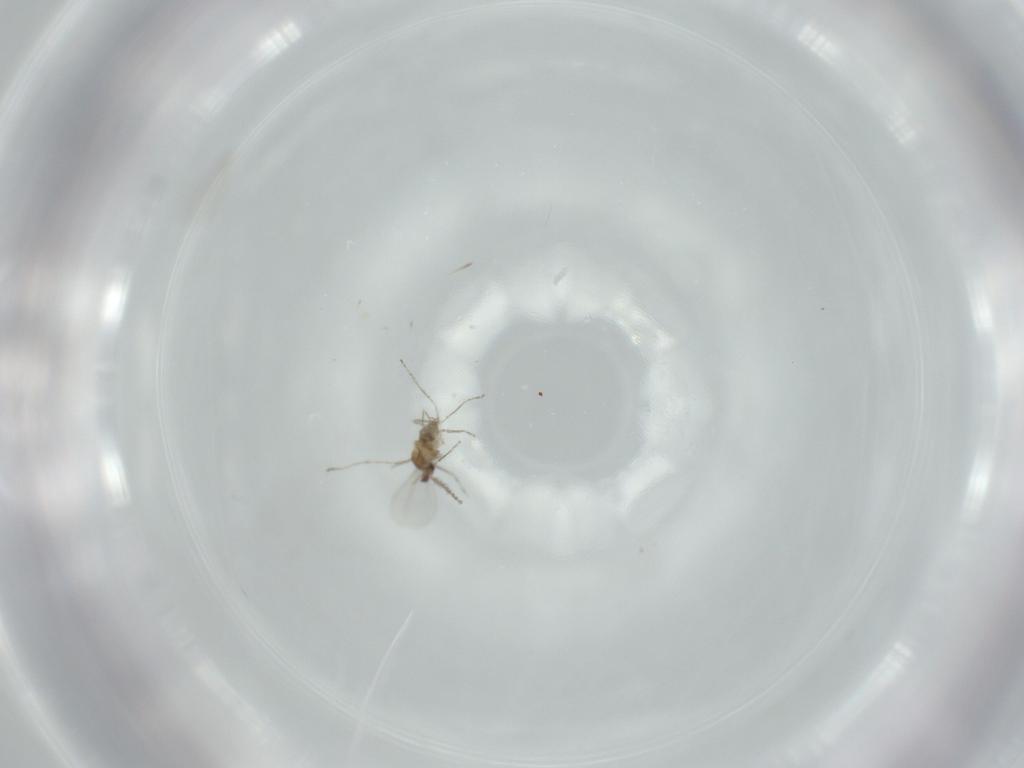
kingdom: Animalia
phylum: Arthropoda
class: Insecta
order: Diptera
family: Cecidomyiidae
